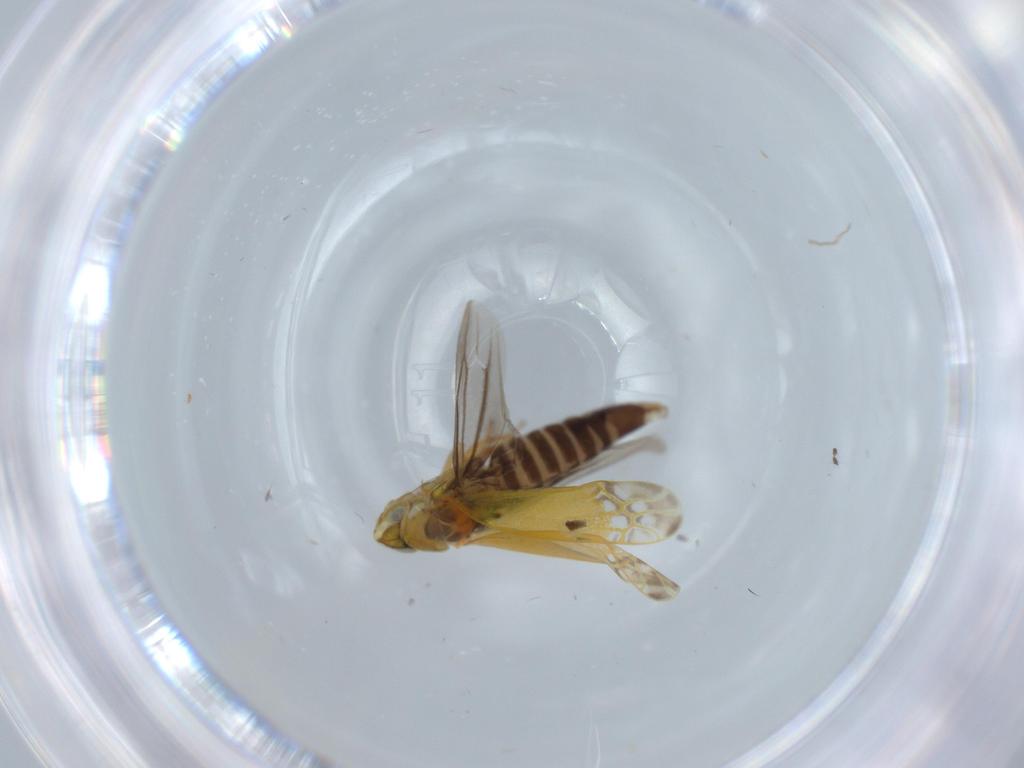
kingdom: Animalia
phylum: Arthropoda
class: Insecta
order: Hemiptera
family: Cicadellidae
